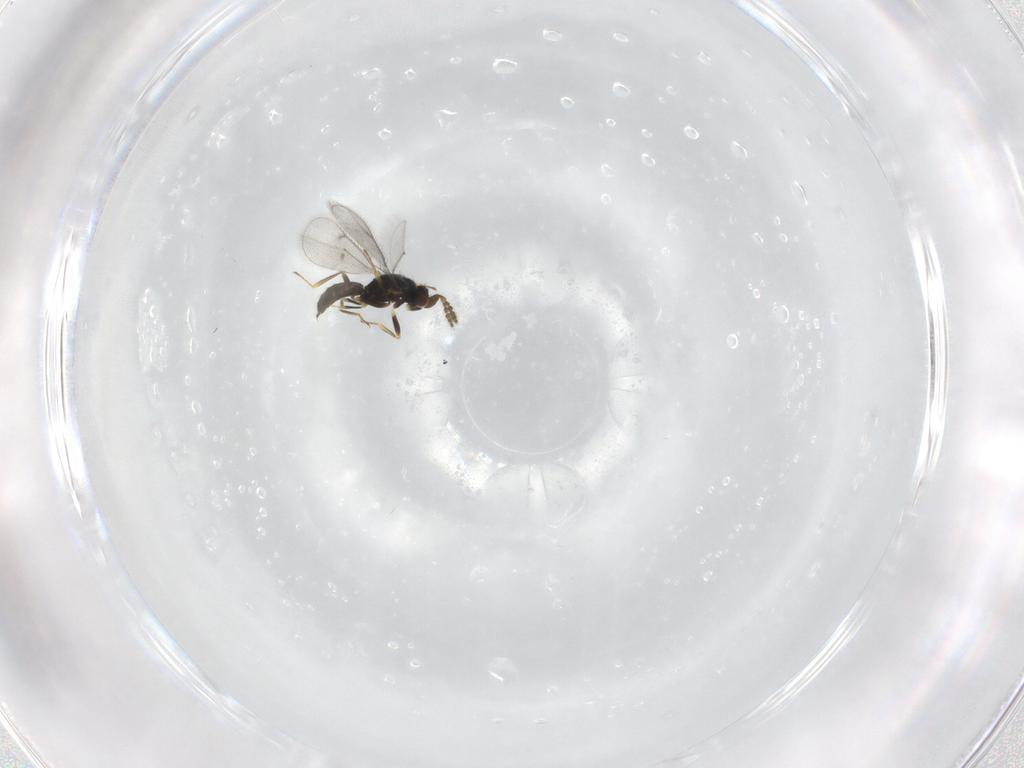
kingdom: Animalia
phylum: Arthropoda
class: Insecta
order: Hymenoptera
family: Eulophidae
